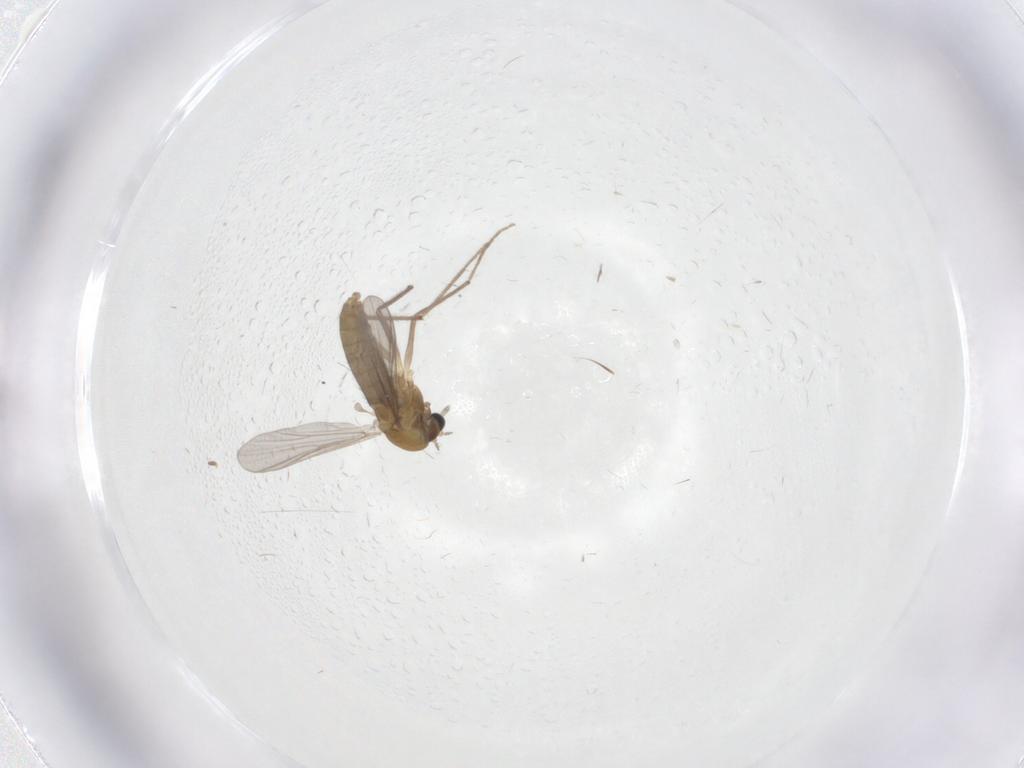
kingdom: Animalia
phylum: Arthropoda
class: Insecta
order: Diptera
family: Chironomidae
